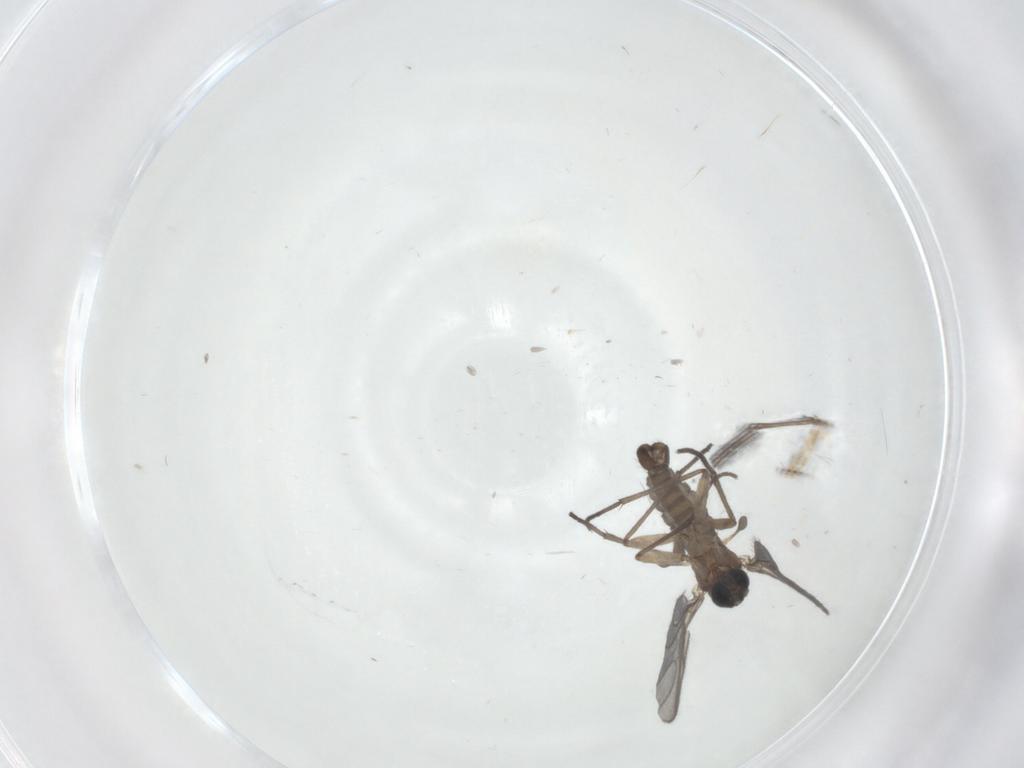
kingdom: Animalia
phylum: Arthropoda
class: Insecta
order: Diptera
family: Sciaridae
